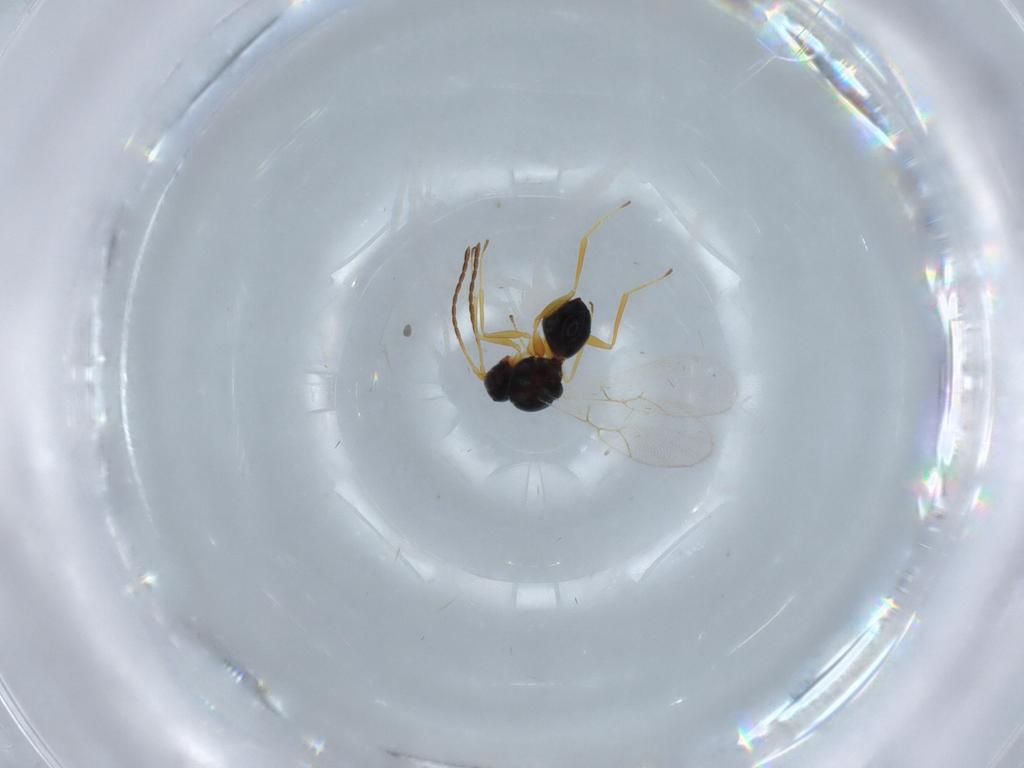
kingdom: Animalia
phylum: Arthropoda
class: Insecta
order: Hymenoptera
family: Figitidae
